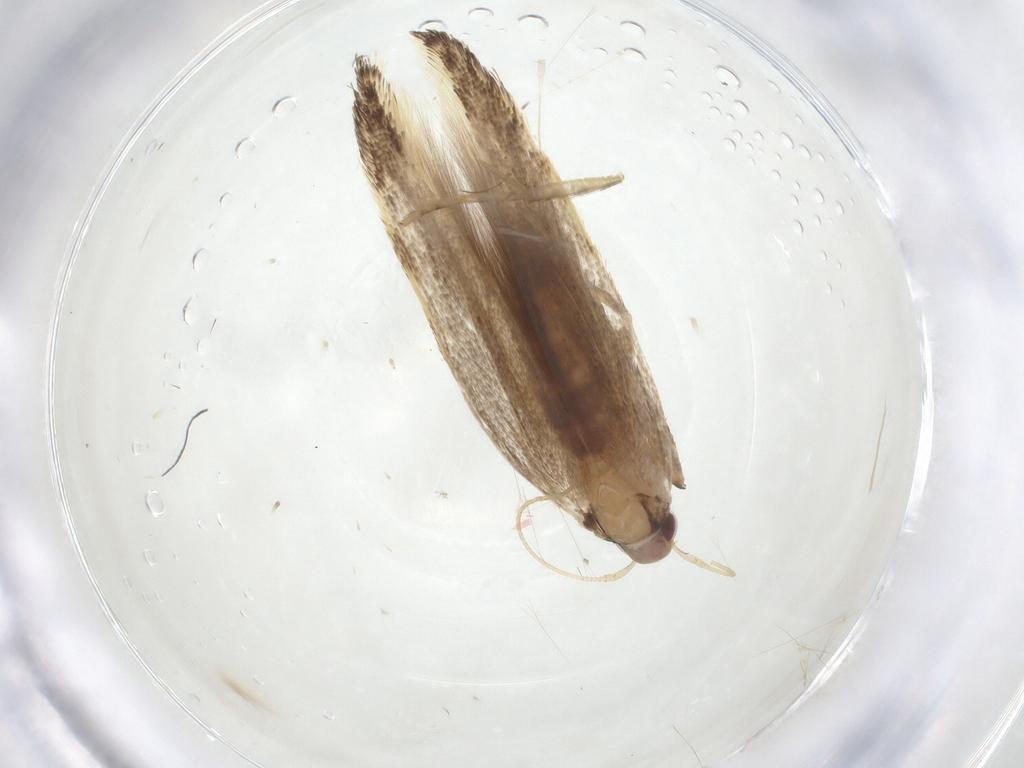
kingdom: Animalia
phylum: Arthropoda
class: Insecta
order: Lepidoptera
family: Cosmopterigidae
